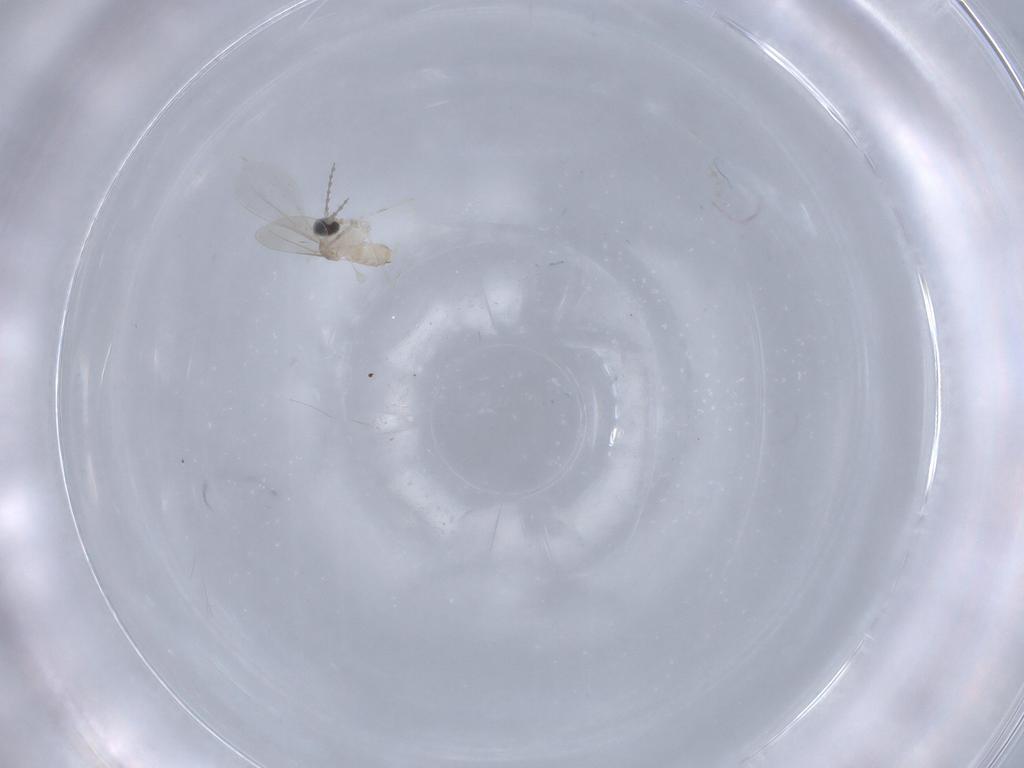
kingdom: Animalia
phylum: Arthropoda
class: Insecta
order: Diptera
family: Cecidomyiidae
